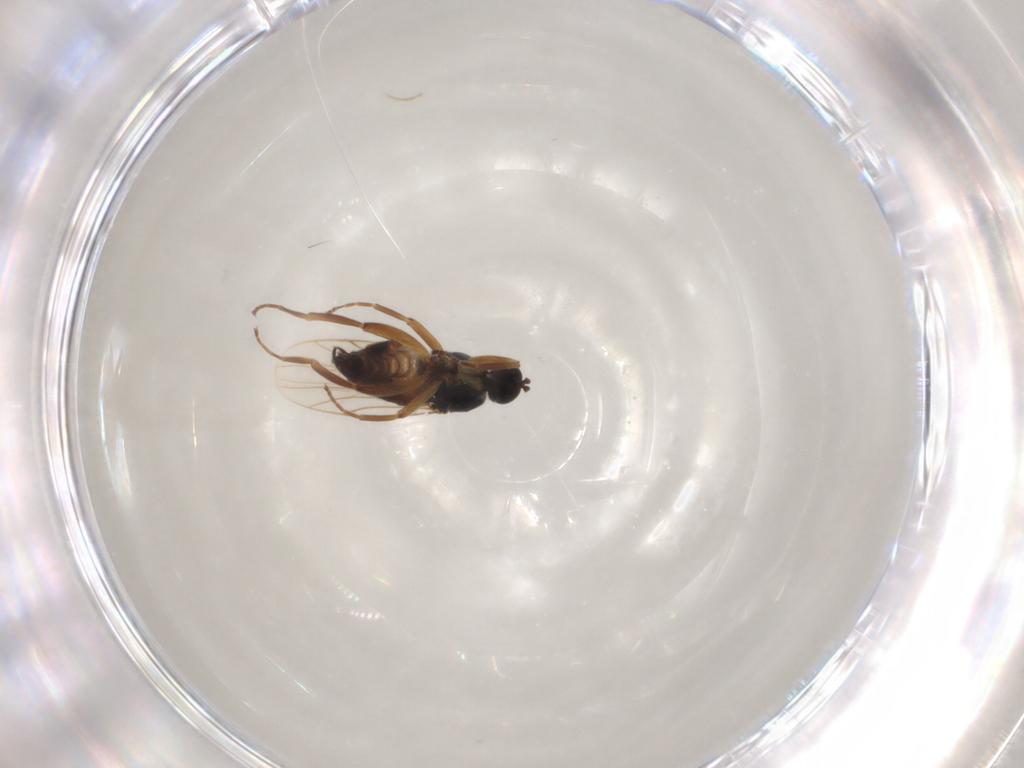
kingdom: Animalia
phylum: Arthropoda
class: Insecta
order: Diptera
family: Hybotidae
